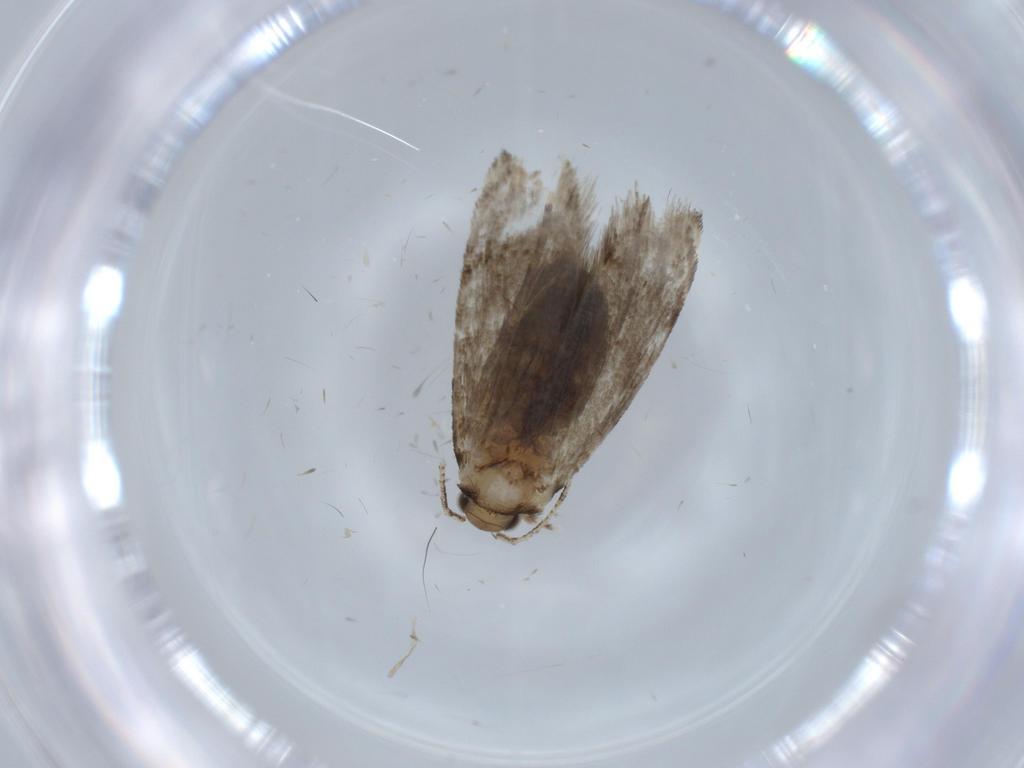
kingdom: Animalia
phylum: Arthropoda
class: Insecta
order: Lepidoptera
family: Dryadaulidae
